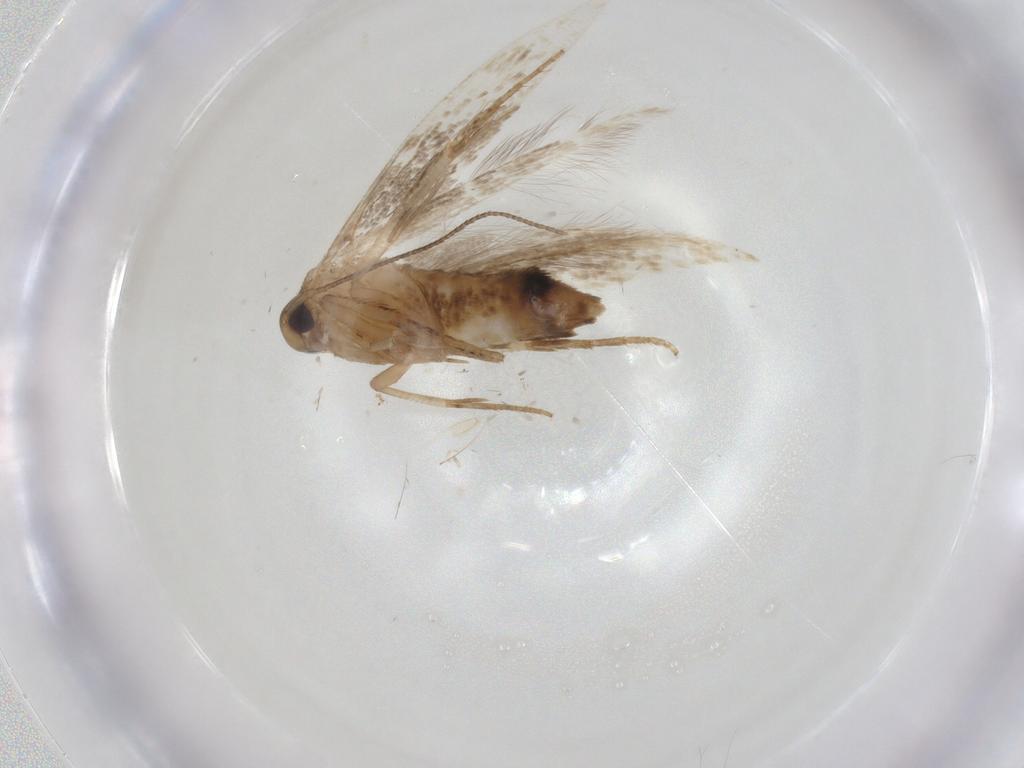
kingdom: Animalia
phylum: Arthropoda
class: Insecta
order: Lepidoptera
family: Cosmopterigidae
